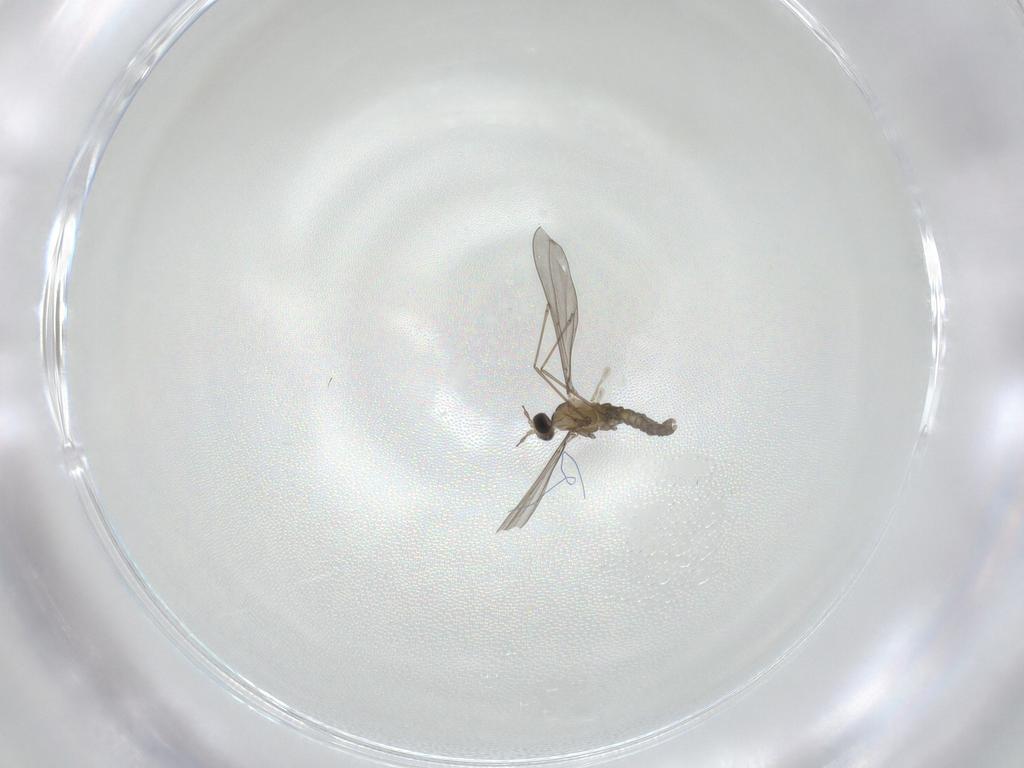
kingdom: Animalia
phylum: Arthropoda
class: Insecta
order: Diptera
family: Cecidomyiidae
